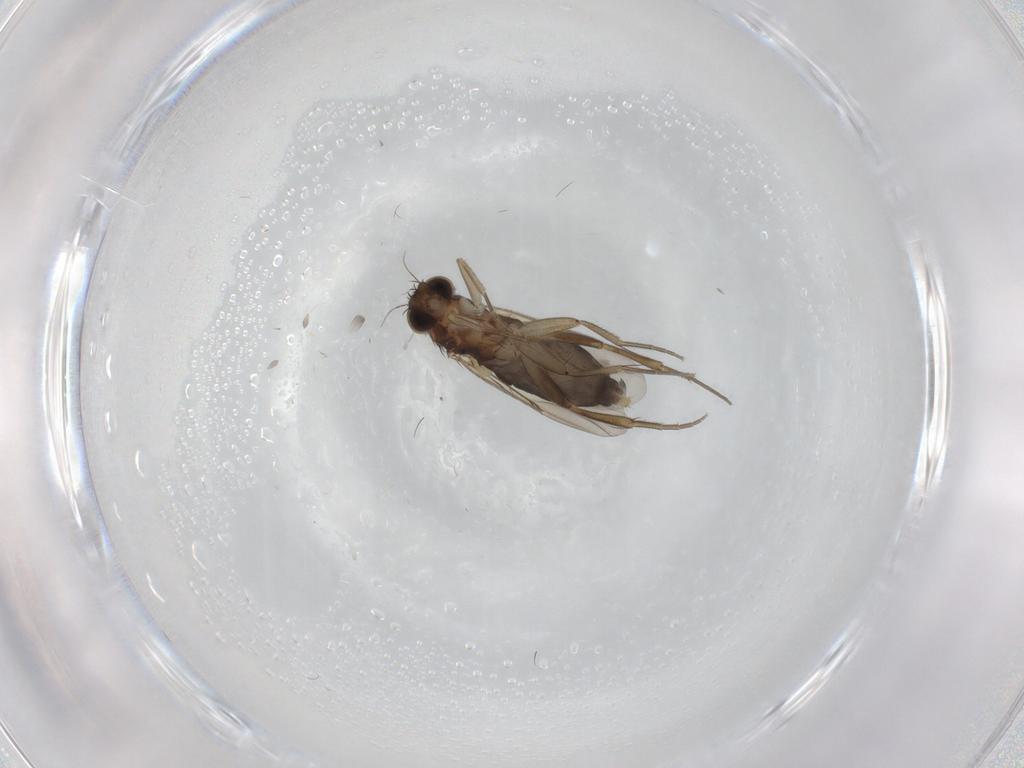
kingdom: Animalia
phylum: Arthropoda
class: Insecta
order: Diptera
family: Phoridae
